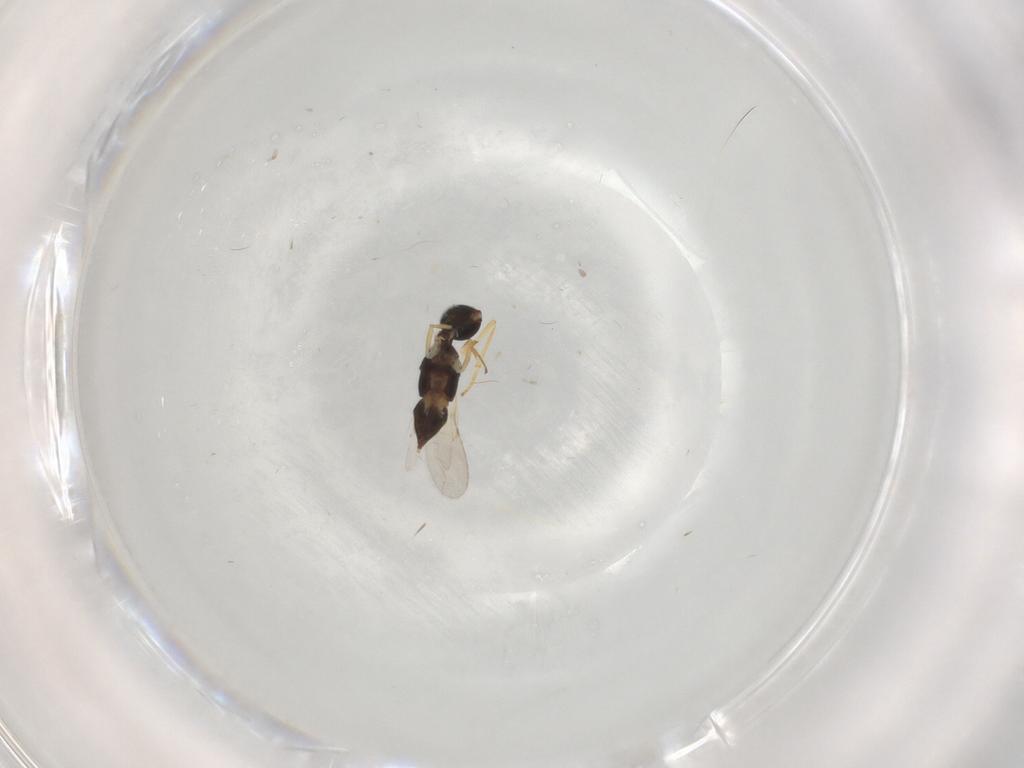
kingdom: Animalia
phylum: Arthropoda
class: Insecta
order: Hymenoptera
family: Encyrtidae
